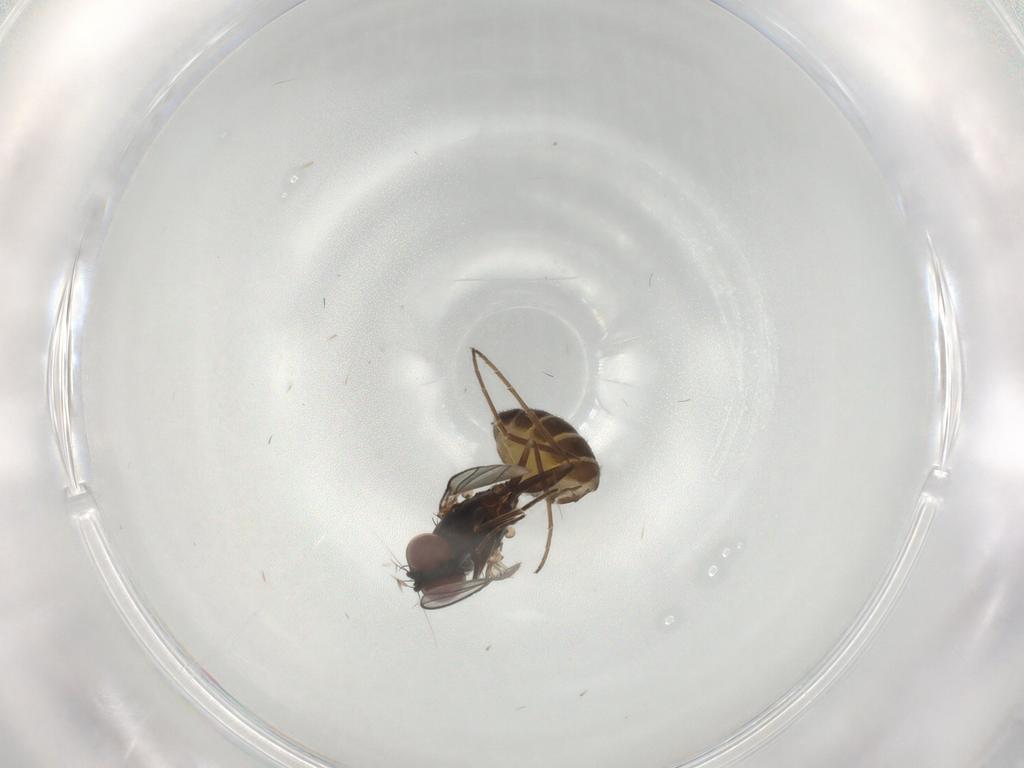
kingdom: Animalia
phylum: Arthropoda
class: Insecta
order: Diptera
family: Dolichopodidae
